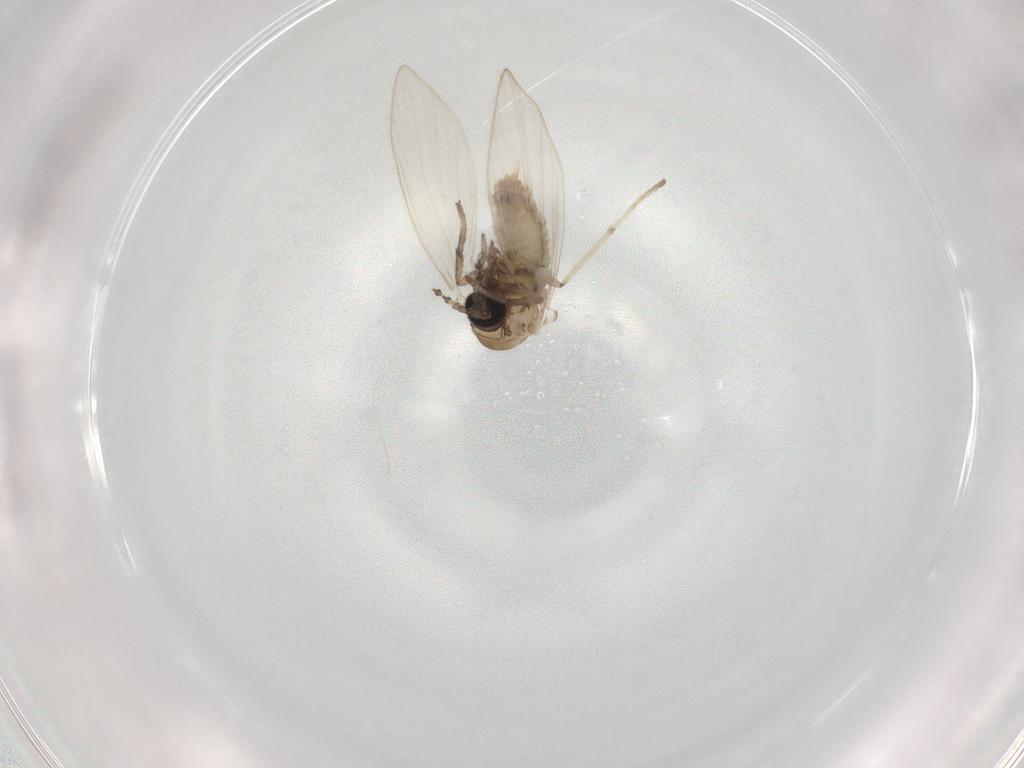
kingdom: Animalia
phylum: Arthropoda
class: Insecta
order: Diptera
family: Psychodidae
